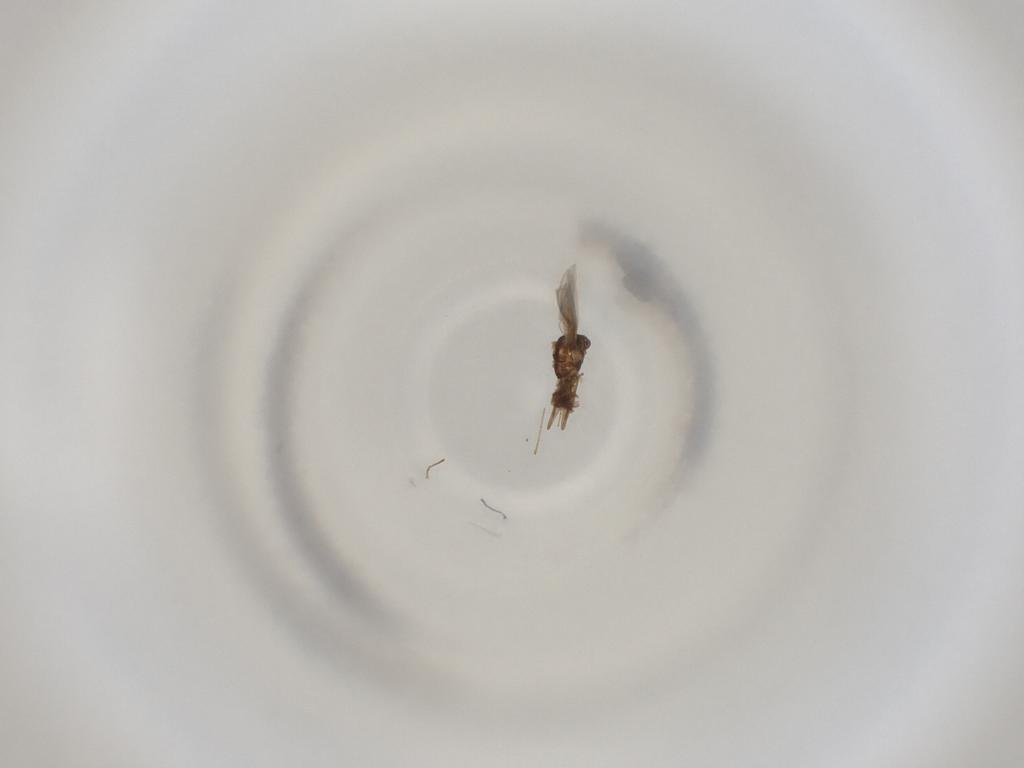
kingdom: Animalia
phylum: Arthropoda
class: Insecta
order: Diptera
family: Cecidomyiidae
